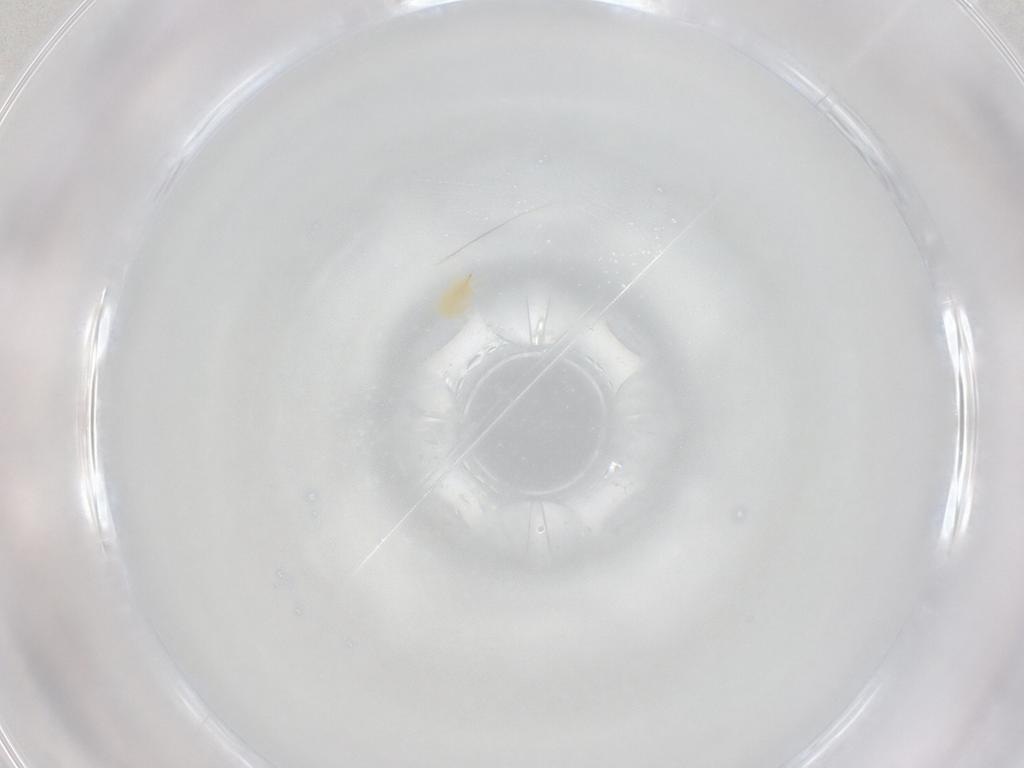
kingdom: Animalia
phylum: Arthropoda
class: Arachnida
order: Trombidiformes
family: Tetranychidae
